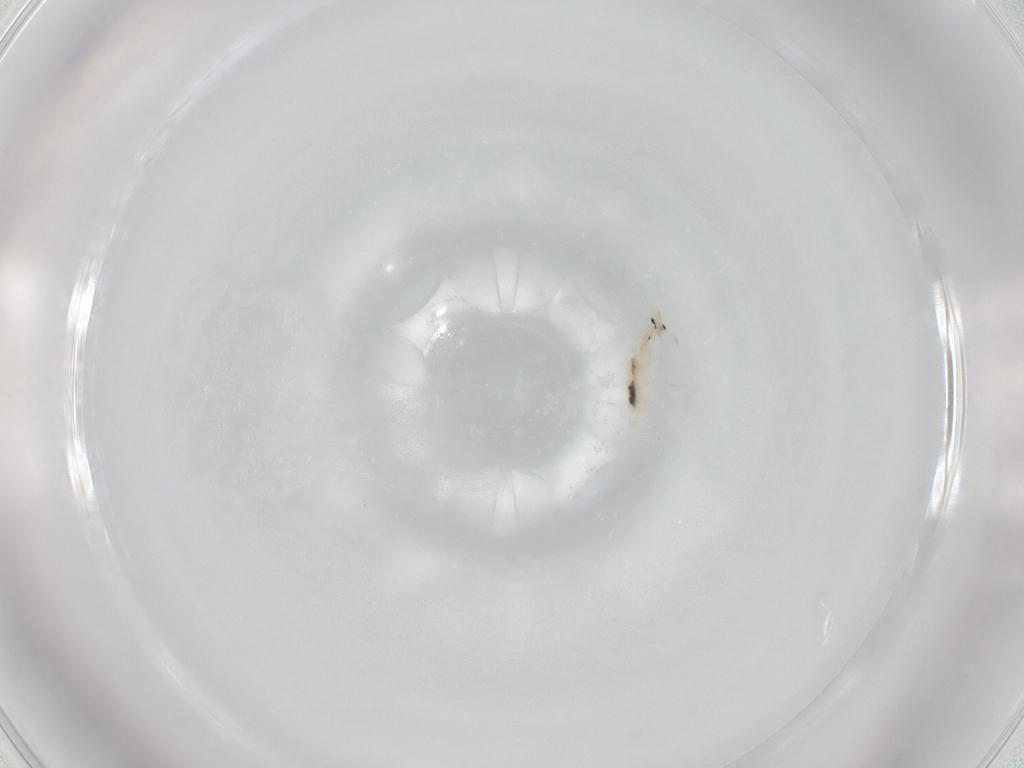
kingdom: Animalia
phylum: Arthropoda
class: Collembola
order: Entomobryomorpha
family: Entomobryidae
